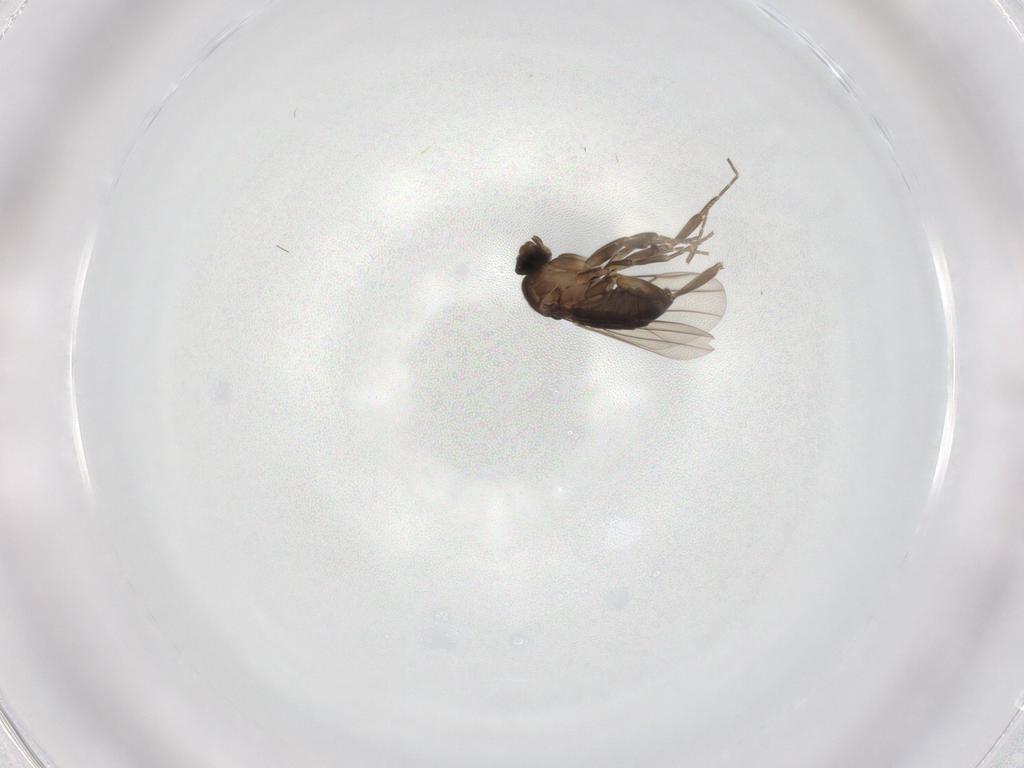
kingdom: Animalia
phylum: Arthropoda
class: Insecta
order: Diptera
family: Phoridae
